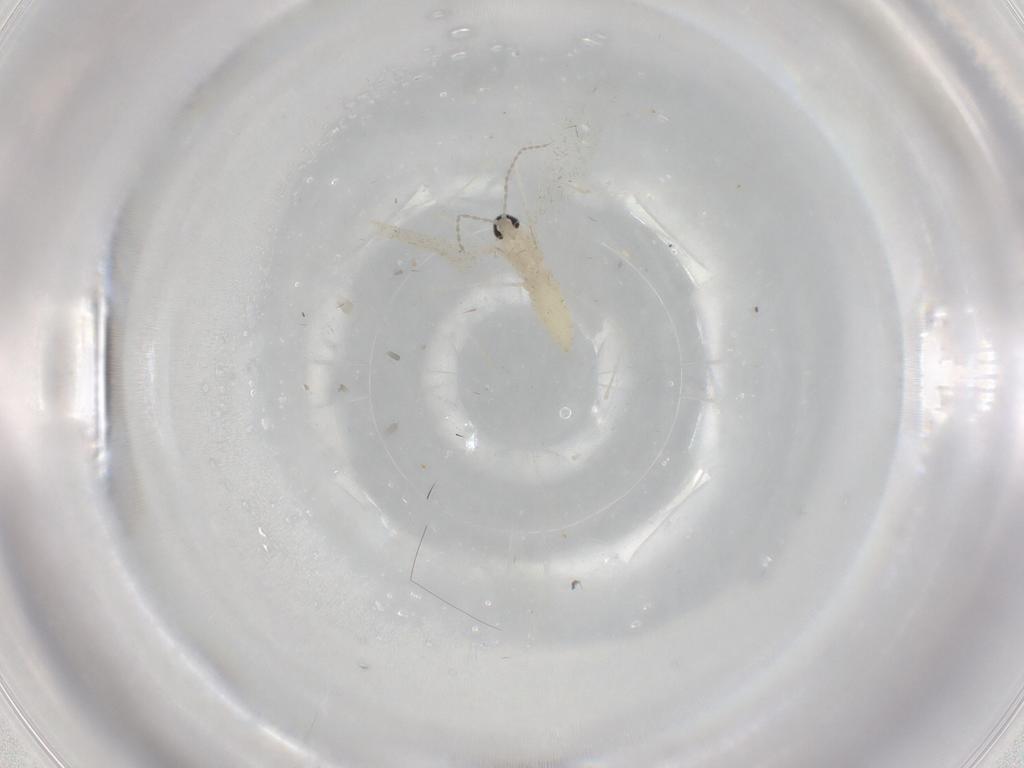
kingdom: Animalia
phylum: Arthropoda
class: Insecta
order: Diptera
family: Cecidomyiidae
